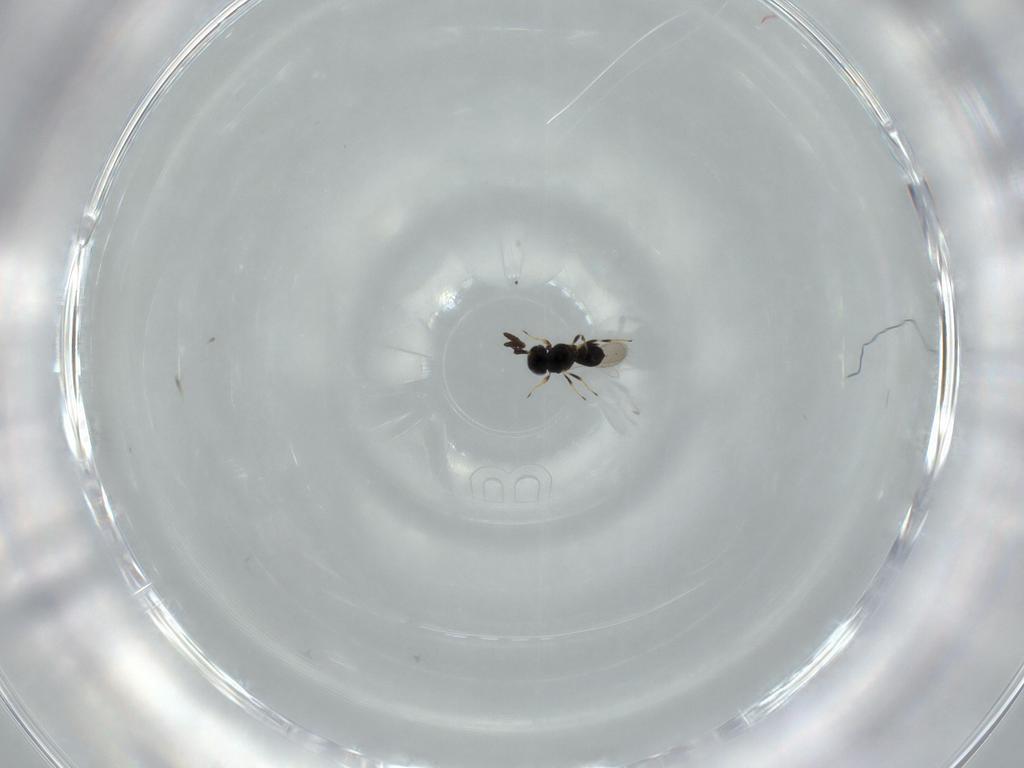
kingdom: Animalia
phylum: Arthropoda
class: Insecta
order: Hymenoptera
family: Scelionidae
